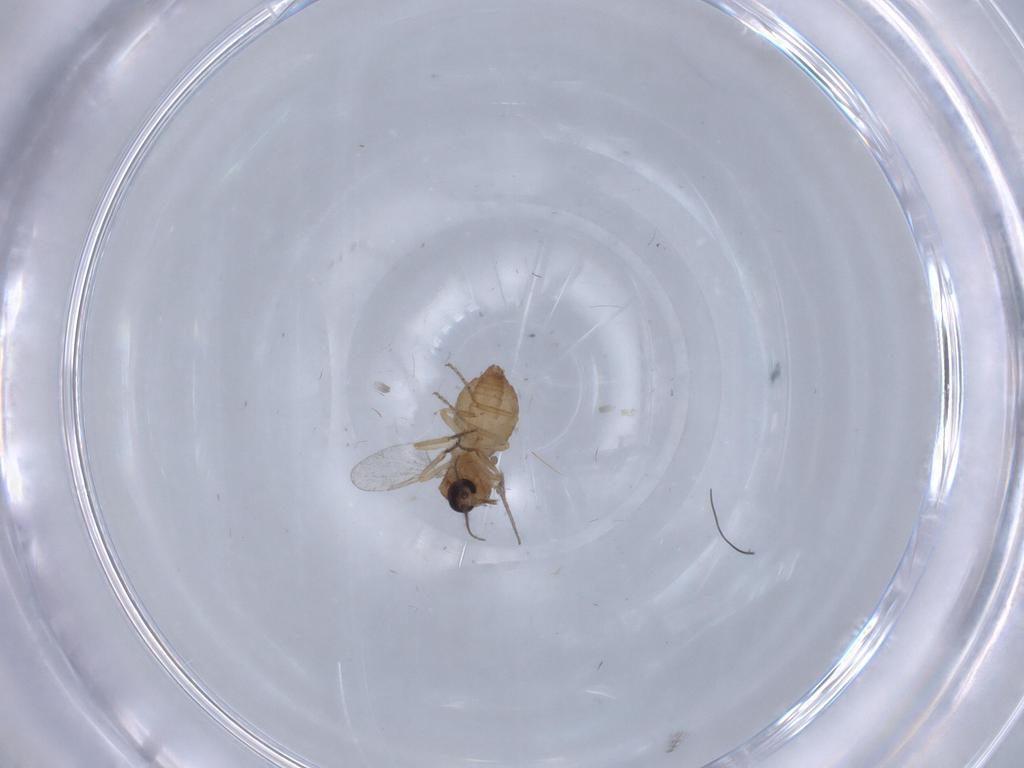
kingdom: Animalia
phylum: Arthropoda
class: Insecta
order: Diptera
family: Ceratopogonidae
